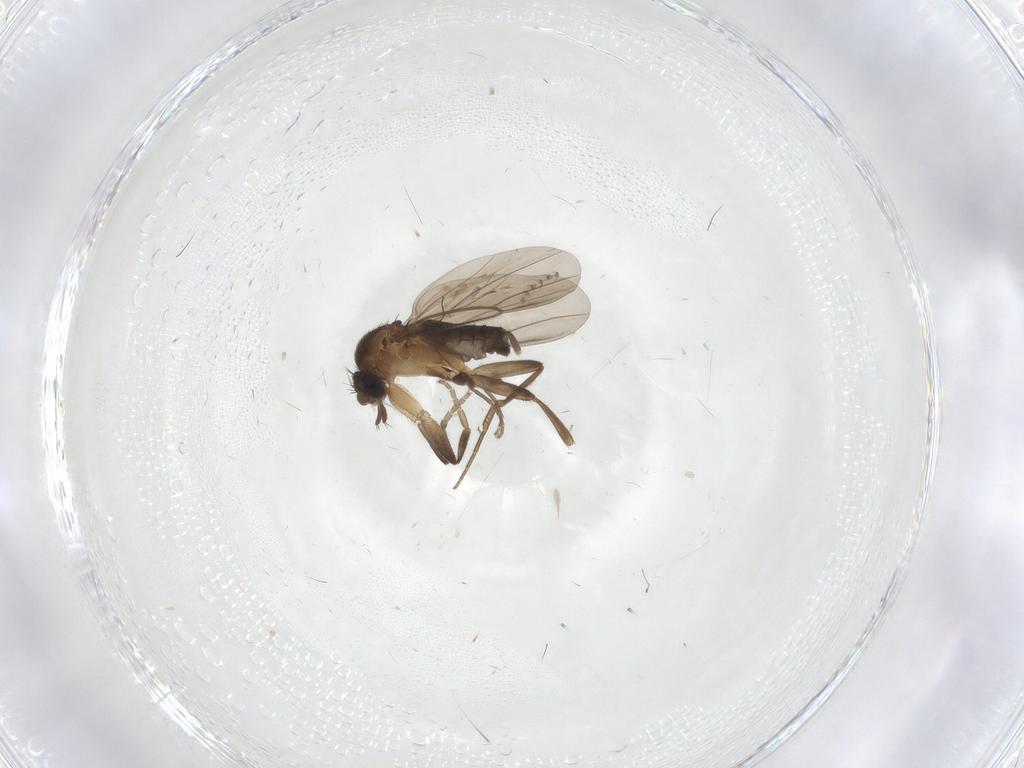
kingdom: Animalia
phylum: Arthropoda
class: Insecta
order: Diptera
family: Phoridae
